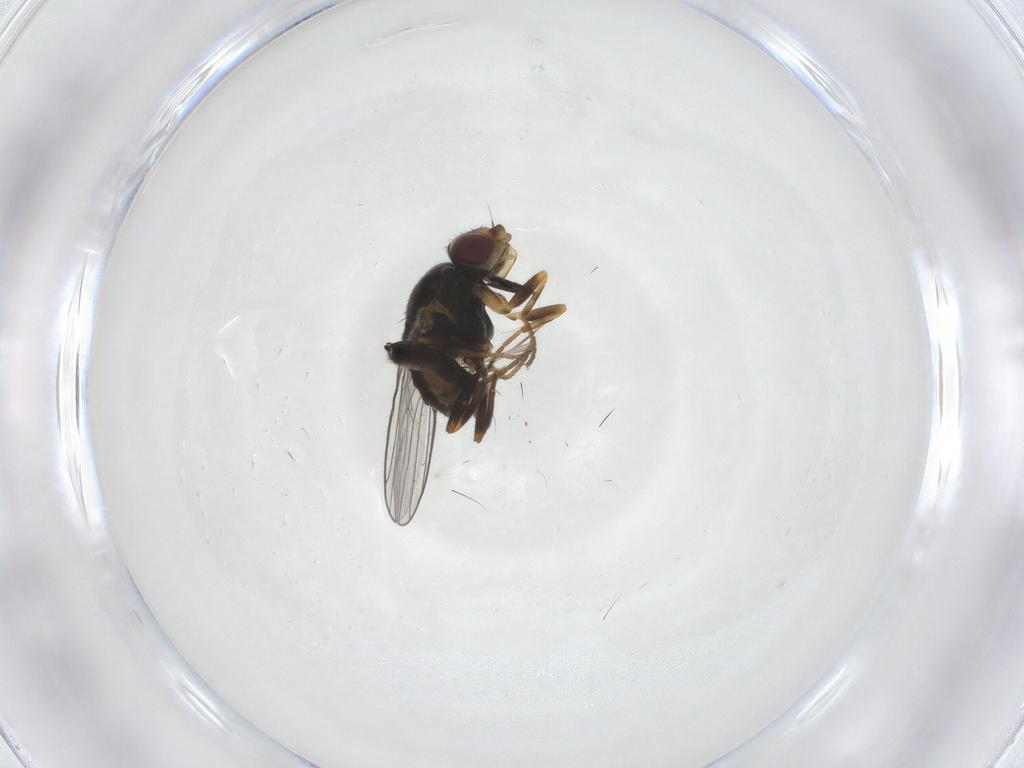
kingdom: Animalia
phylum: Arthropoda
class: Insecta
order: Diptera
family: Chloropidae
